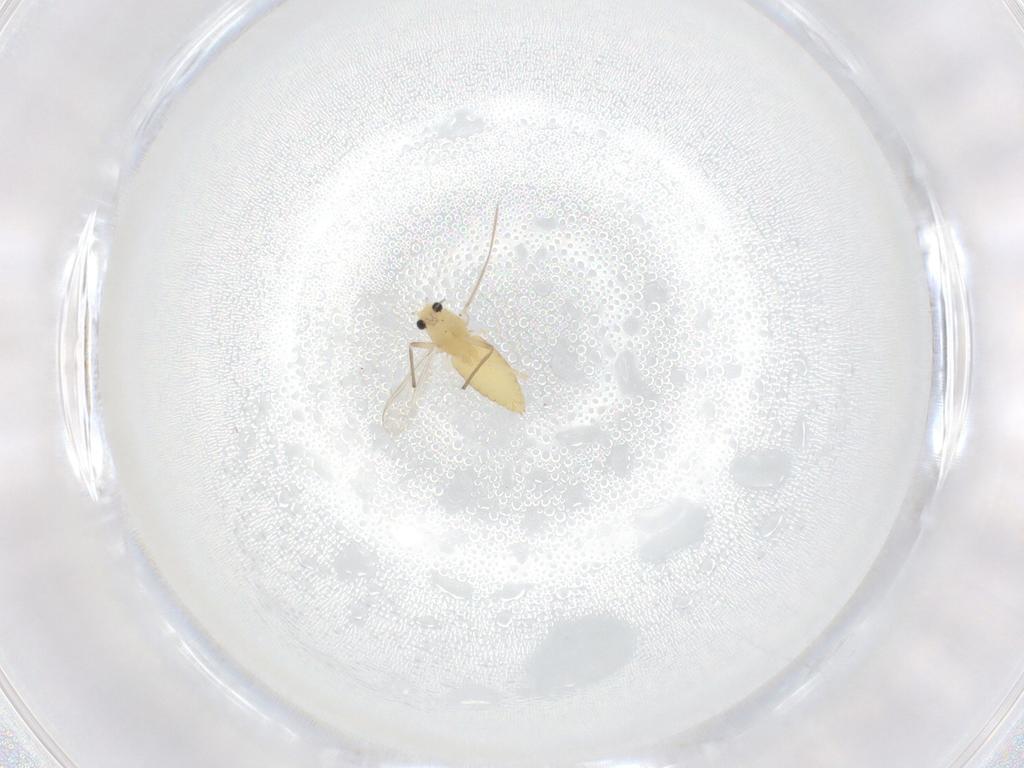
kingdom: Animalia
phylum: Arthropoda
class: Insecta
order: Diptera
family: Chironomidae
